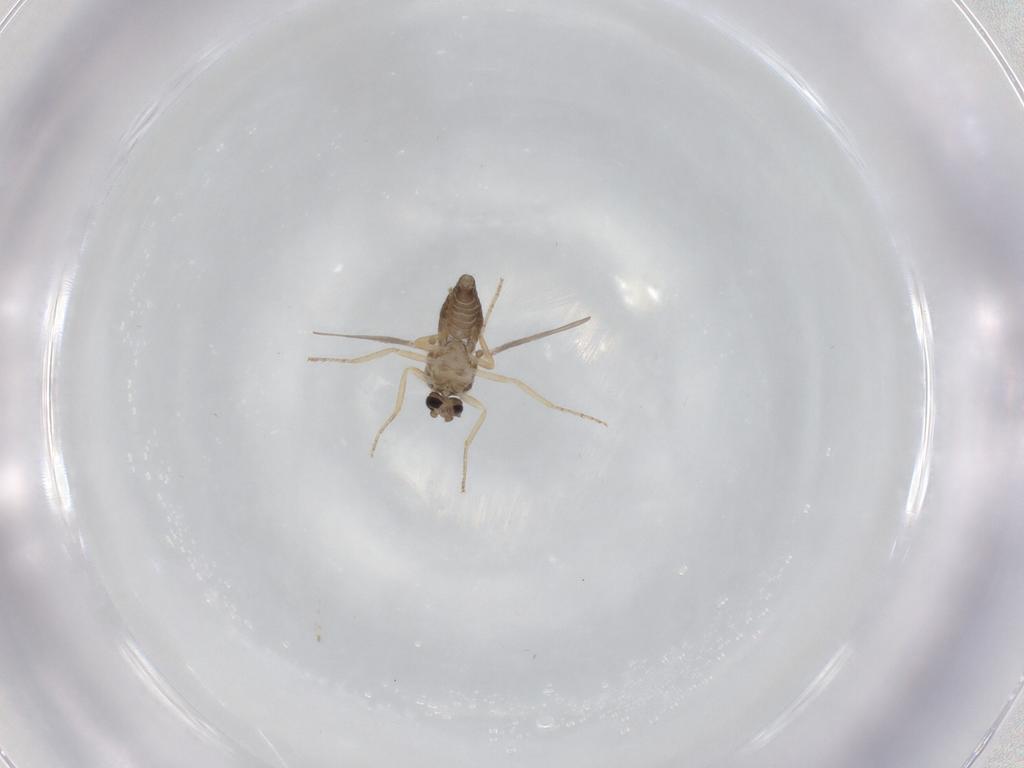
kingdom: Animalia
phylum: Arthropoda
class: Insecta
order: Diptera
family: Ceratopogonidae
